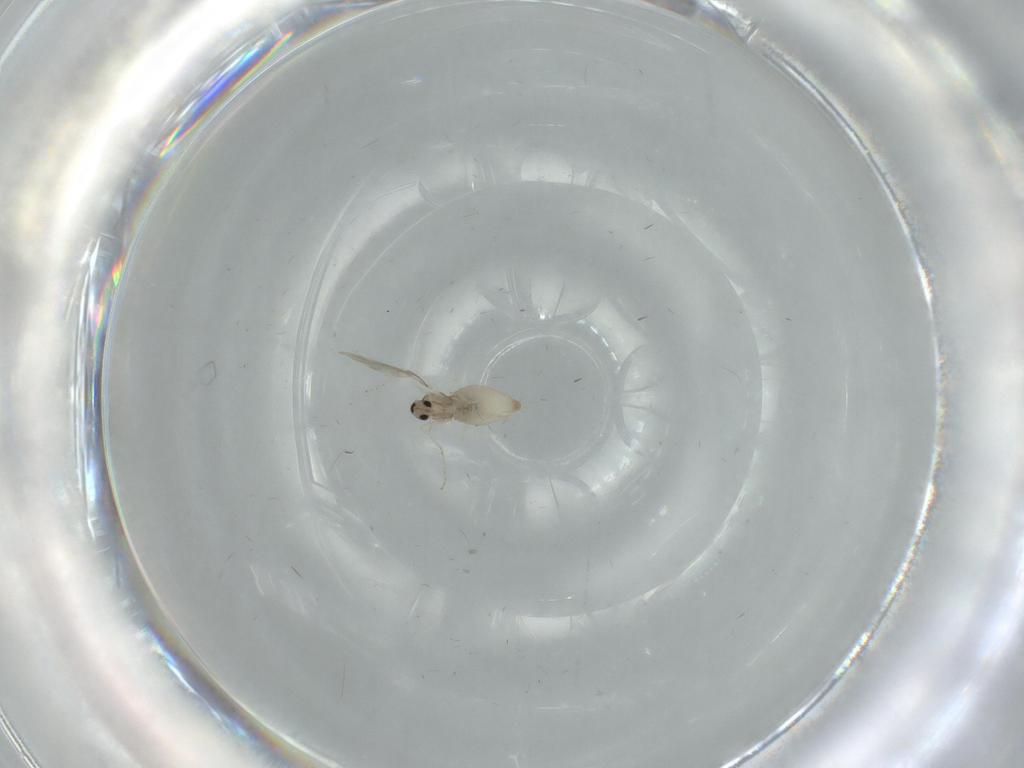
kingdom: Animalia
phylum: Arthropoda
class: Insecta
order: Diptera
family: Cecidomyiidae
